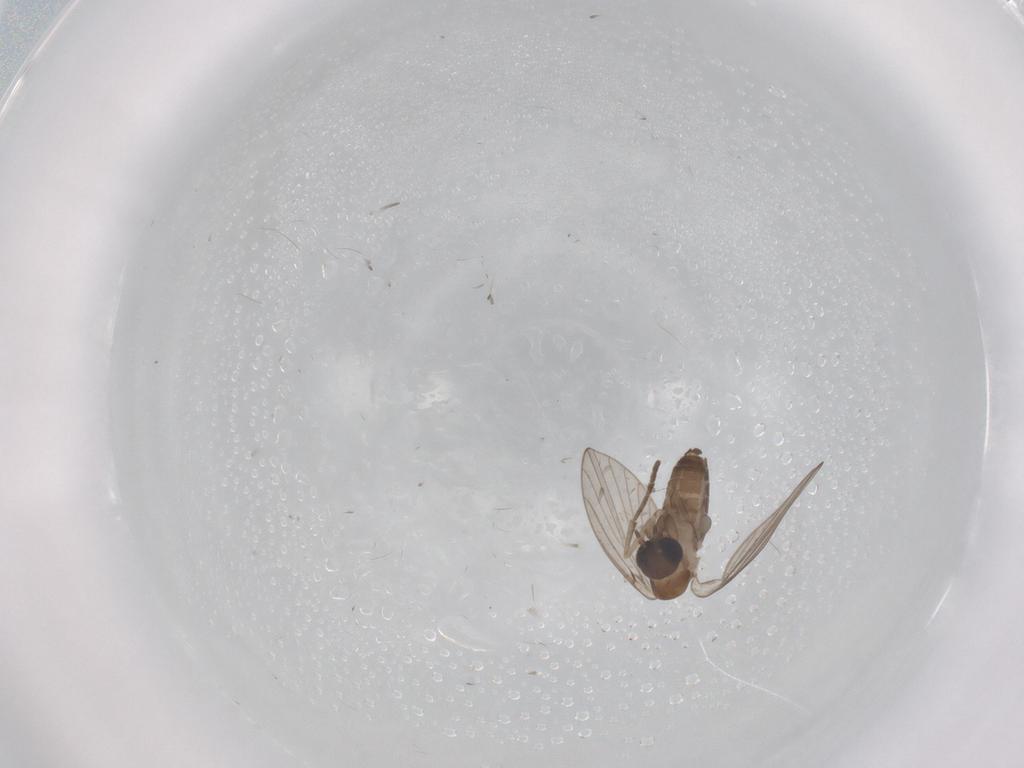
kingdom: Animalia
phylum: Arthropoda
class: Insecta
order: Diptera
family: Psychodidae
